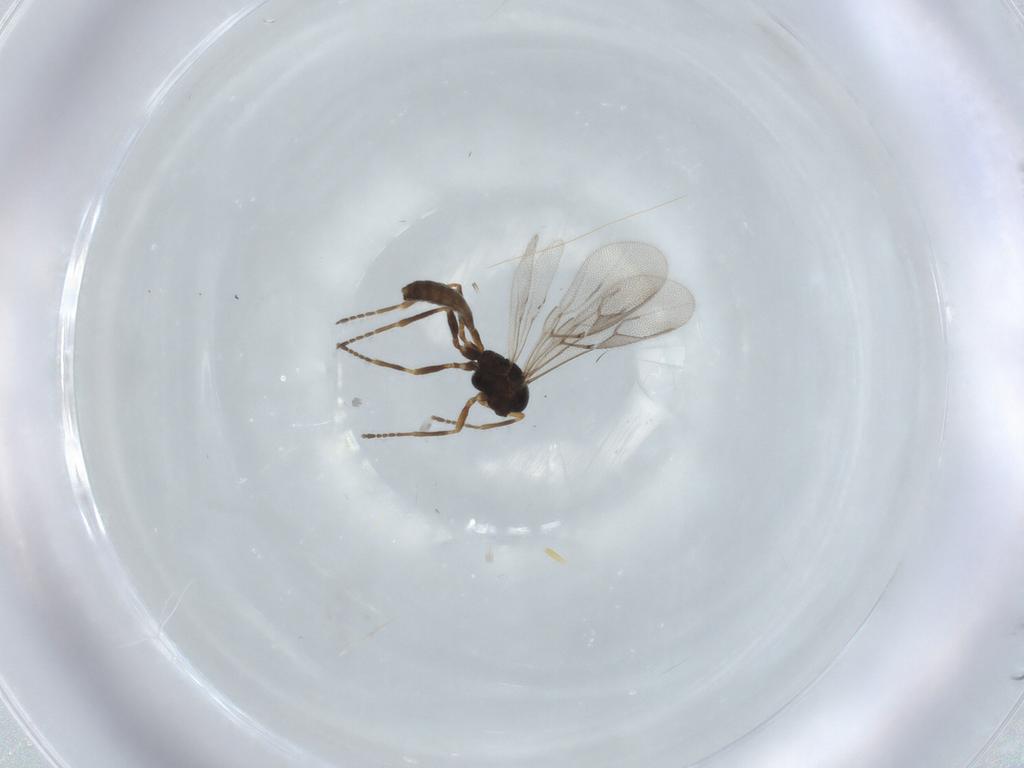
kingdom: Animalia
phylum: Arthropoda
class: Insecta
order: Hymenoptera
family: Braconidae
